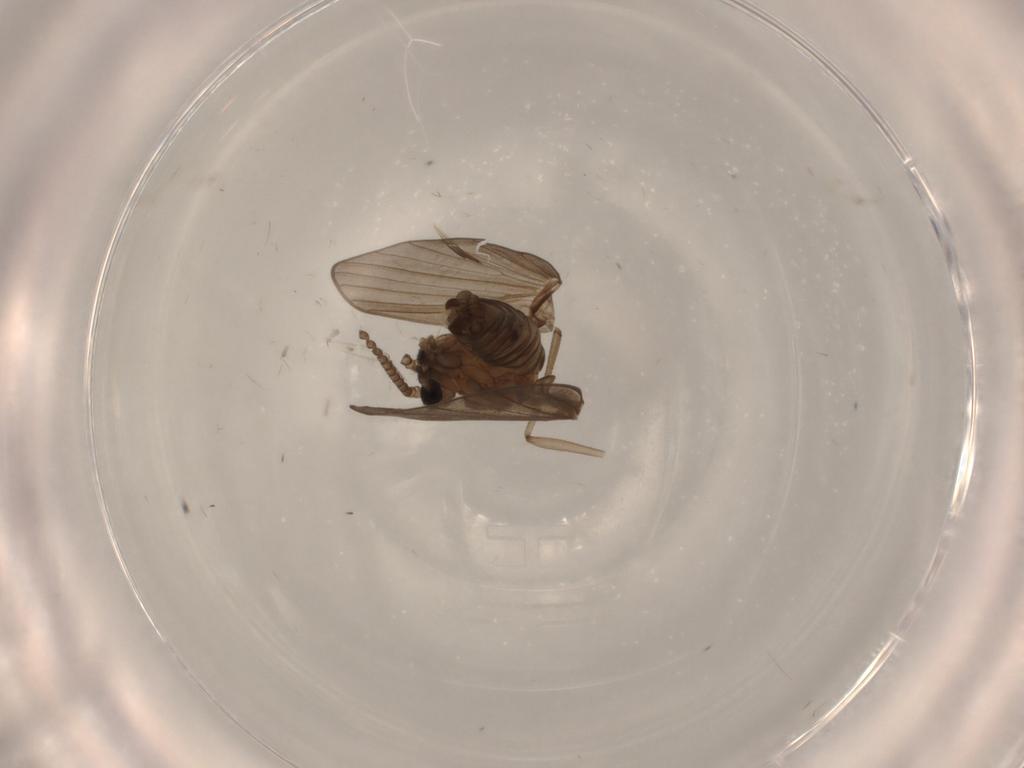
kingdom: Animalia
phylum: Arthropoda
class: Insecta
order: Diptera
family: Psychodidae
